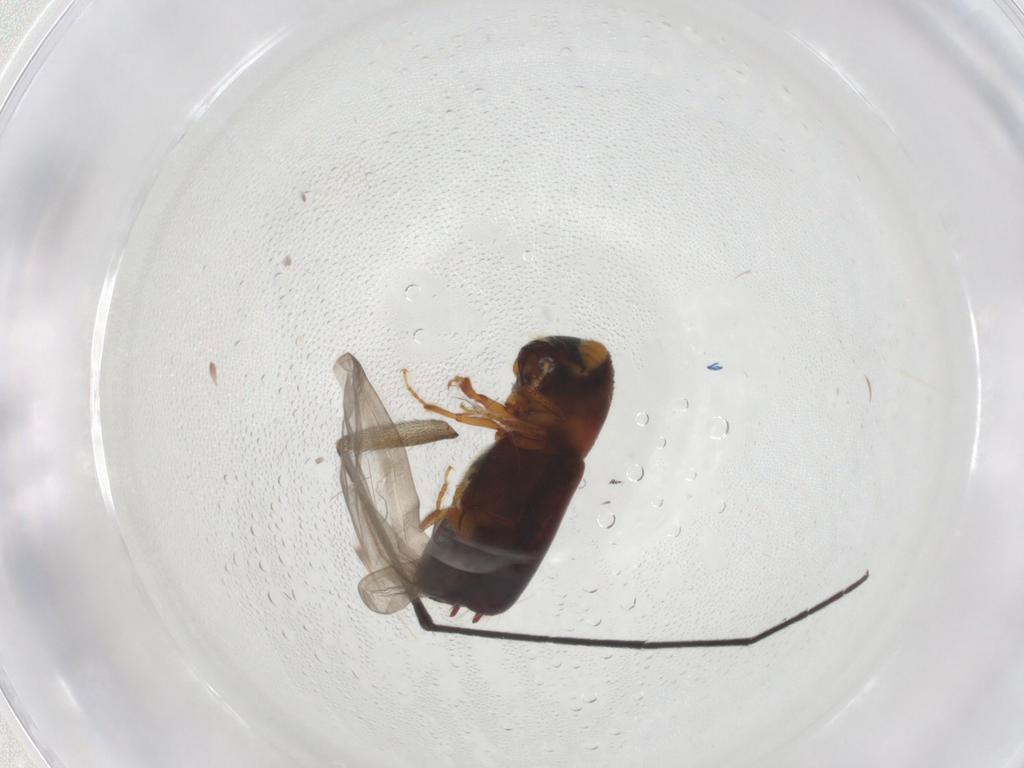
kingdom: Animalia
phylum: Arthropoda
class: Insecta
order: Coleoptera
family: Curculionidae
